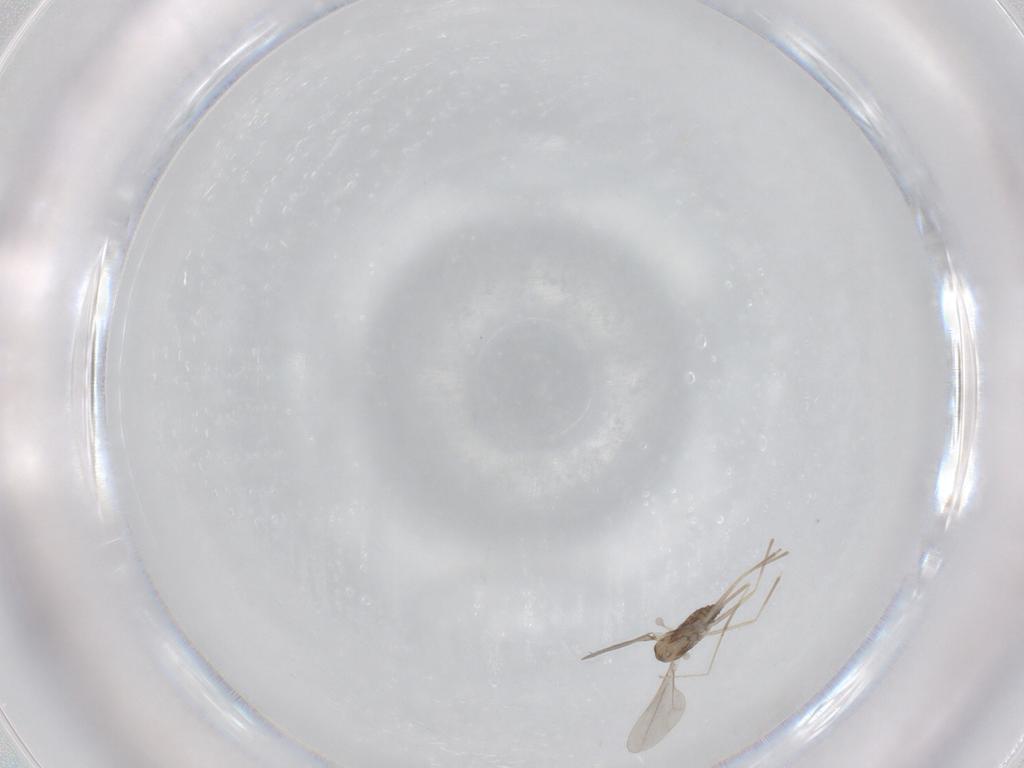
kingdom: Animalia
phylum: Arthropoda
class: Insecta
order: Diptera
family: Cecidomyiidae
